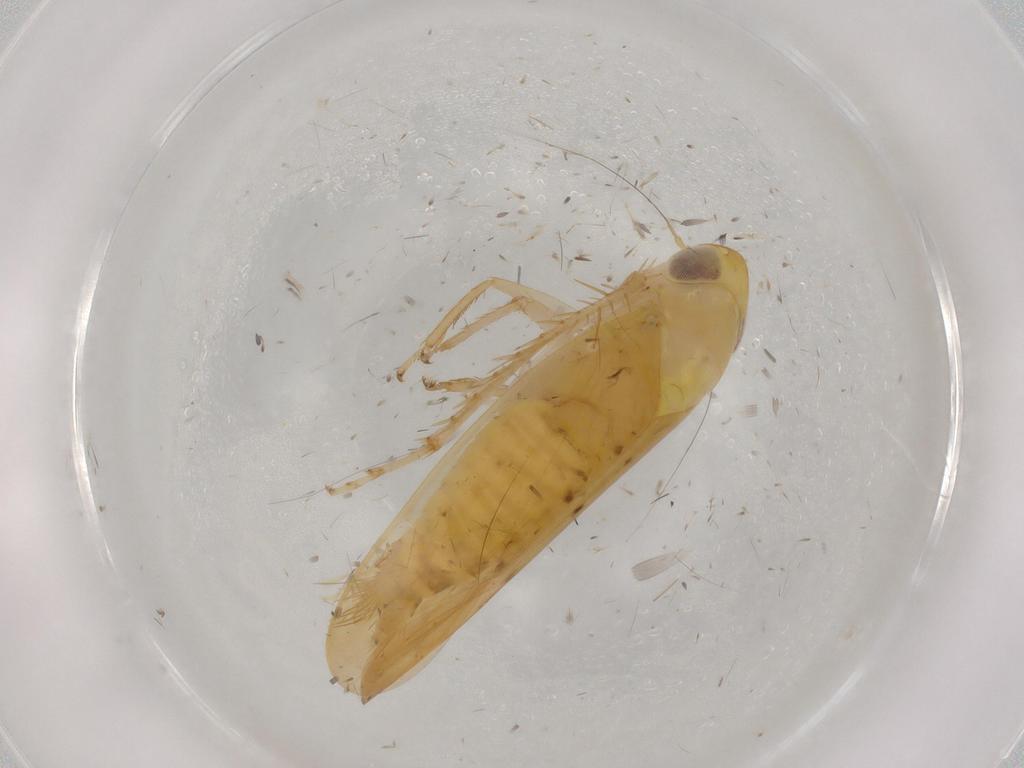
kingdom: Animalia
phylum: Arthropoda
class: Insecta
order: Hemiptera
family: Cicadellidae
